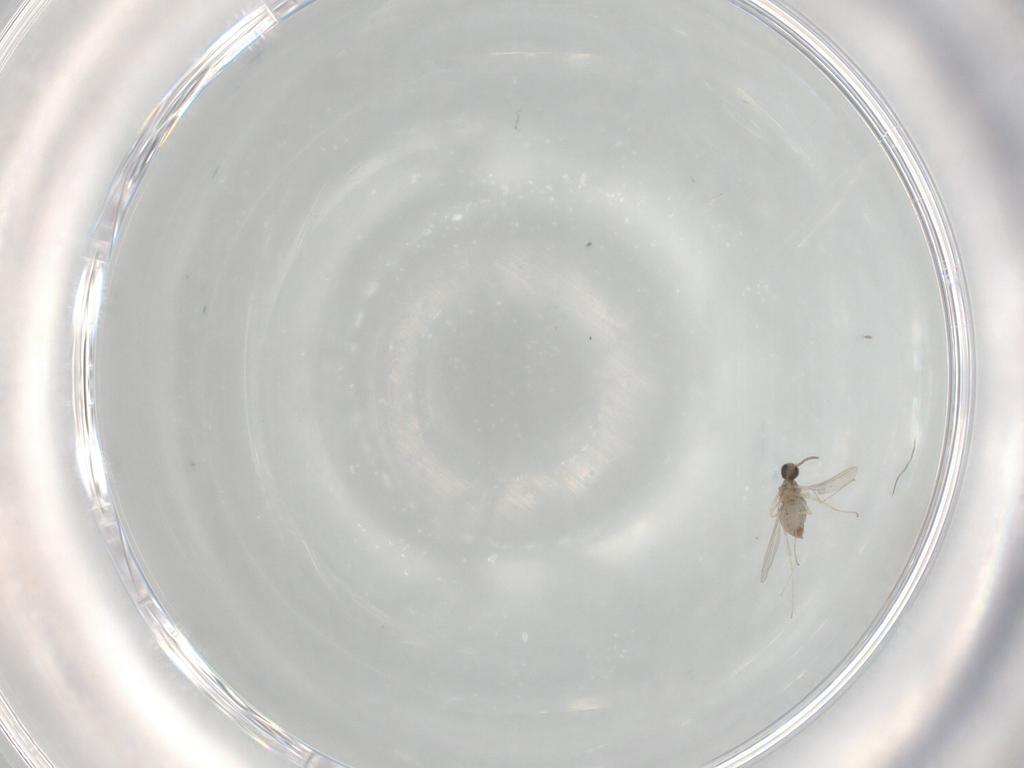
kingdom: Animalia
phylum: Arthropoda
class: Insecta
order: Diptera
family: Cecidomyiidae
